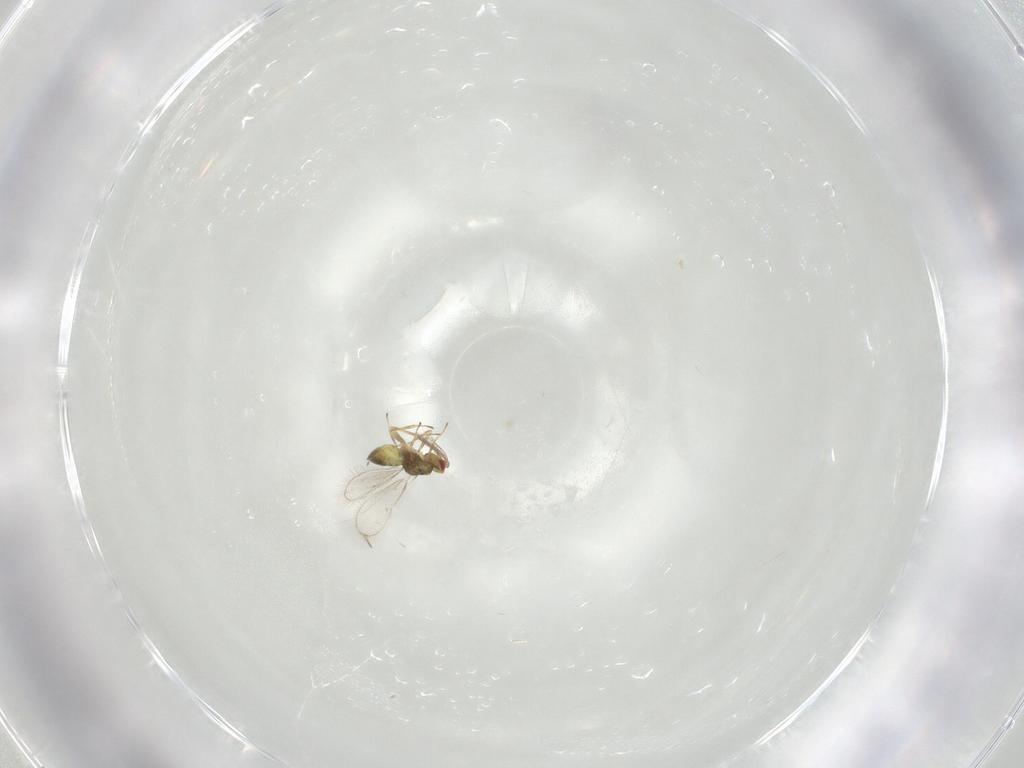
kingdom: Animalia
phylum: Arthropoda
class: Insecta
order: Hymenoptera
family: Eulophidae
